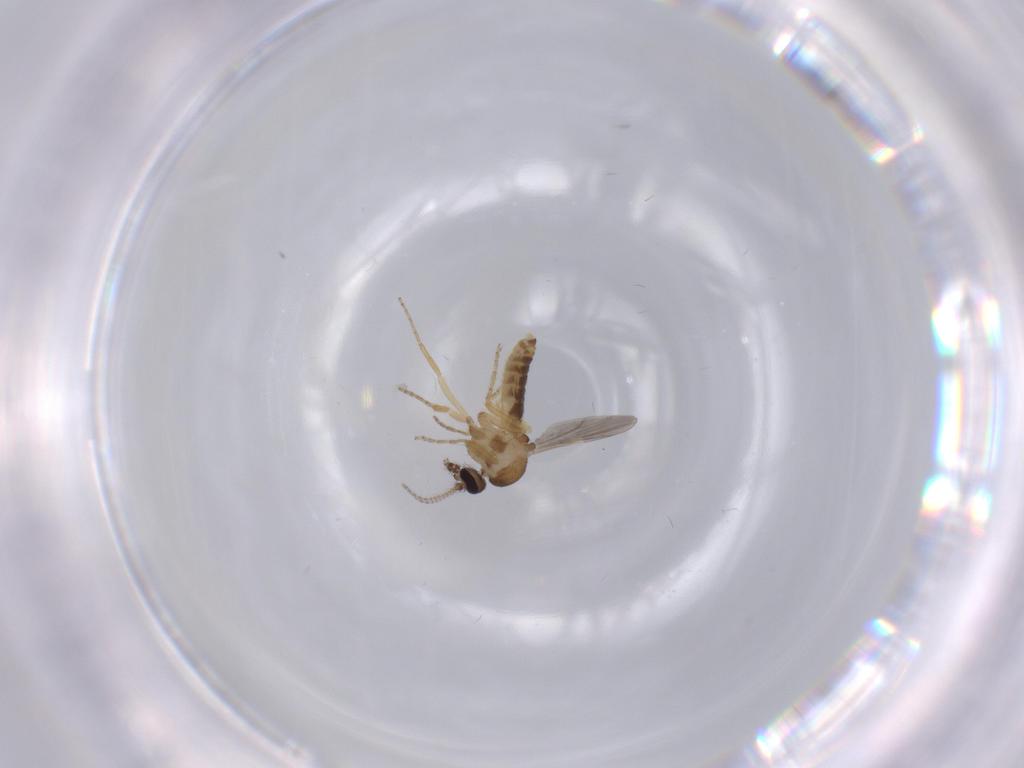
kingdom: Animalia
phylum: Arthropoda
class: Insecta
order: Diptera
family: Ceratopogonidae
